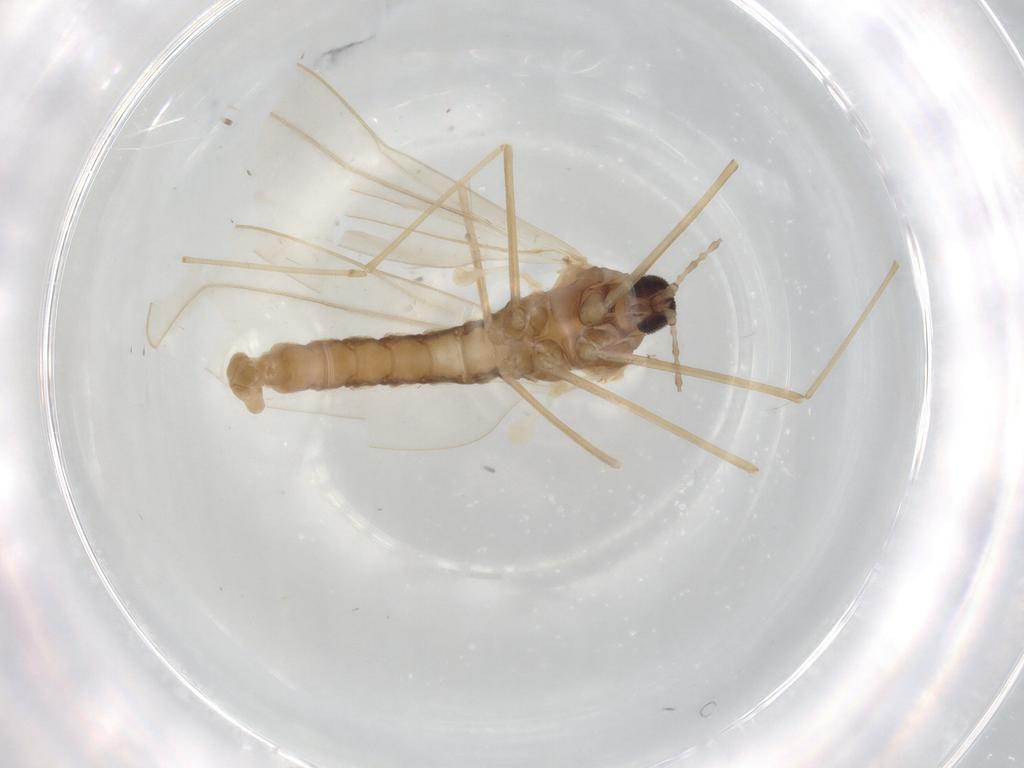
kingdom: Animalia
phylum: Arthropoda
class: Insecta
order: Diptera
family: Cecidomyiidae
